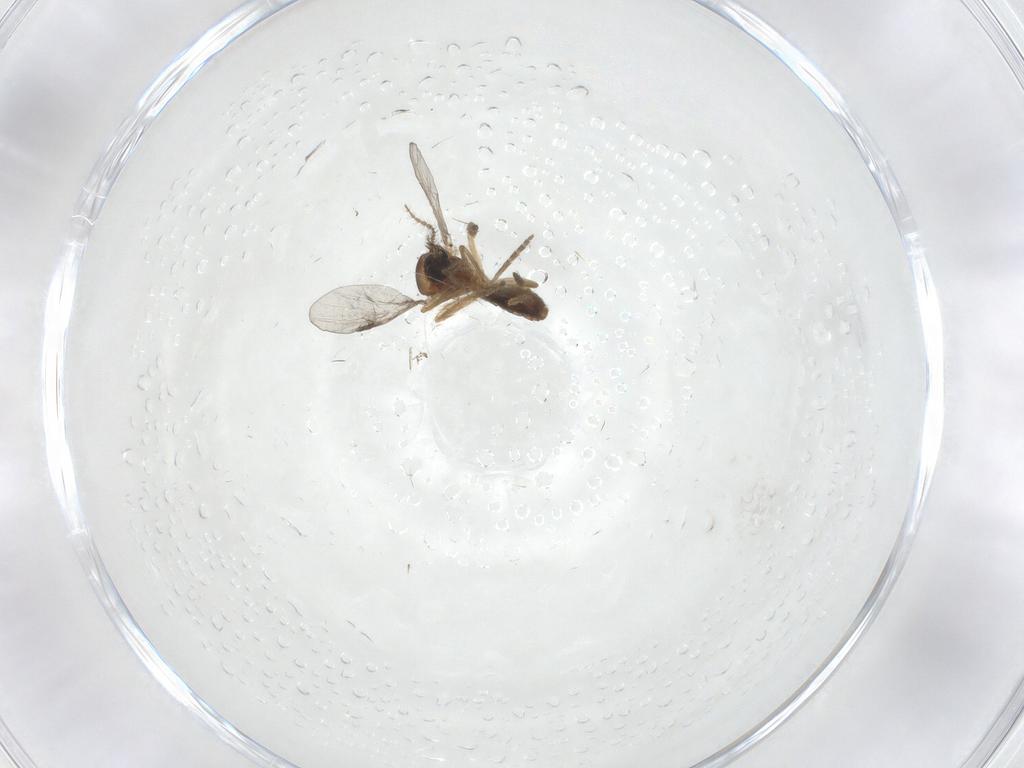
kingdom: Animalia
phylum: Arthropoda
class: Insecta
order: Diptera
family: Ceratopogonidae
